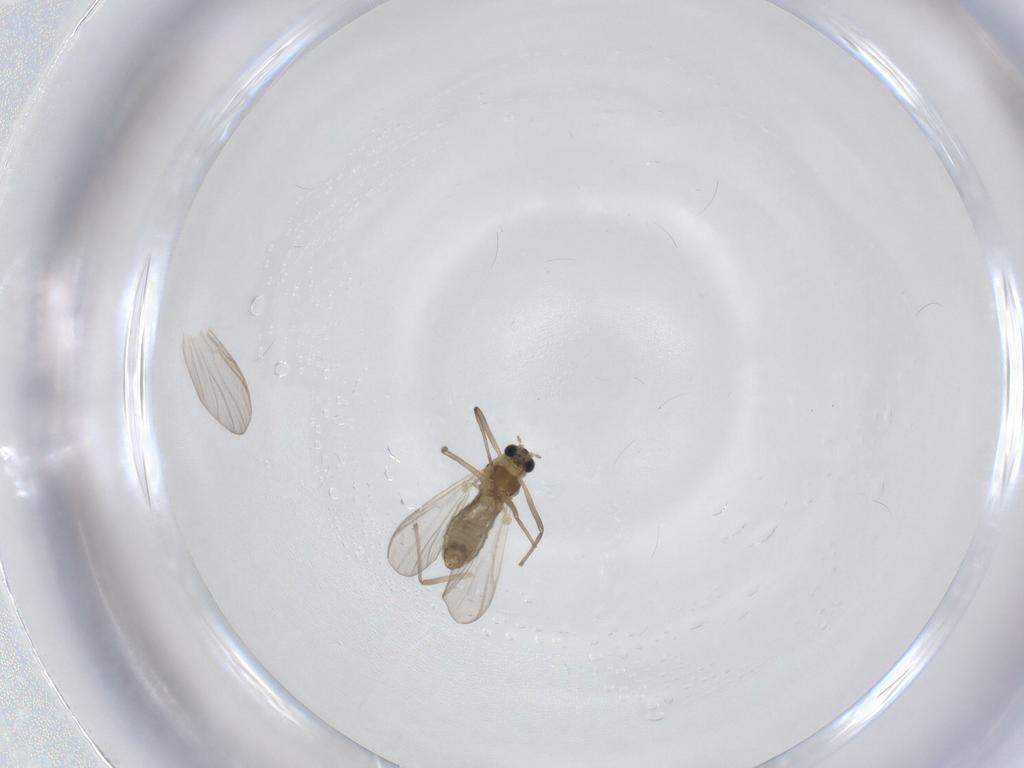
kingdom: Animalia
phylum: Arthropoda
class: Insecta
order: Diptera
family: Chironomidae
